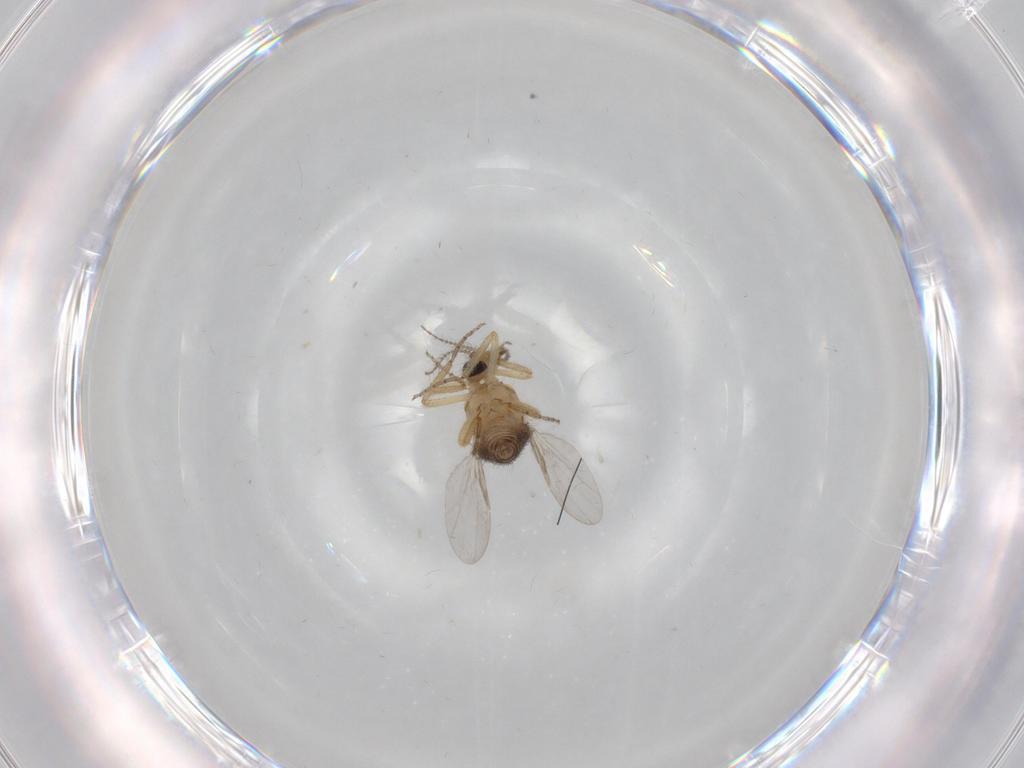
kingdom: Animalia
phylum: Arthropoda
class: Insecta
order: Diptera
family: Ceratopogonidae
